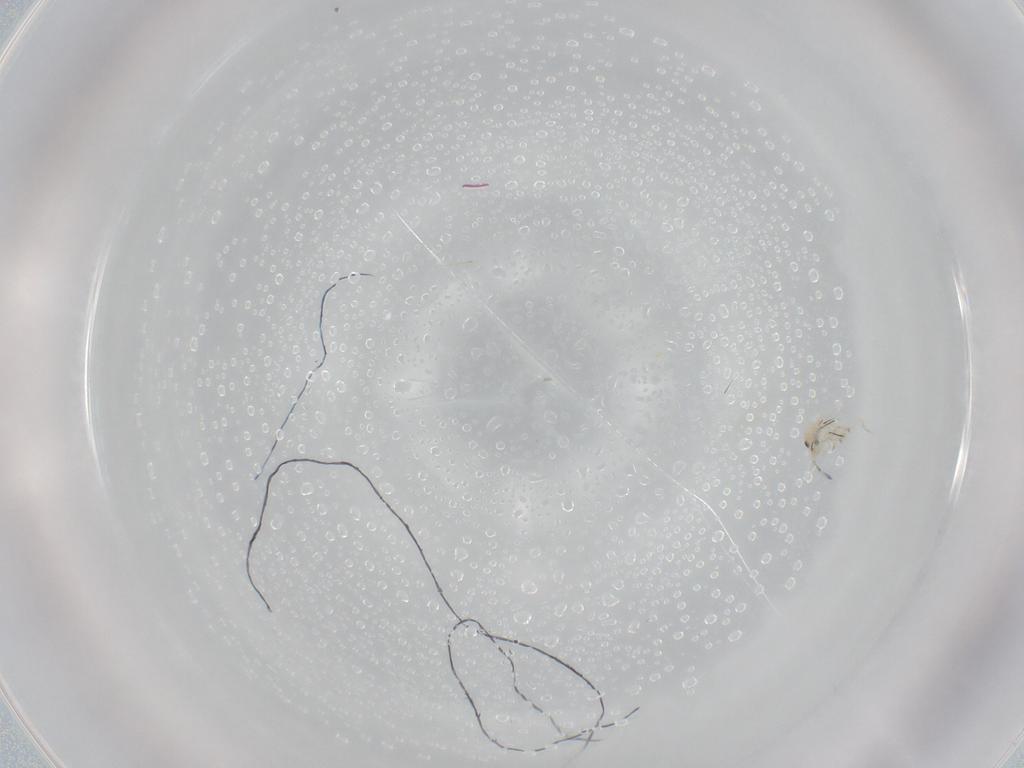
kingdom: Animalia
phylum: Arthropoda
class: Collembola
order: Entomobryomorpha
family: Entomobryidae
